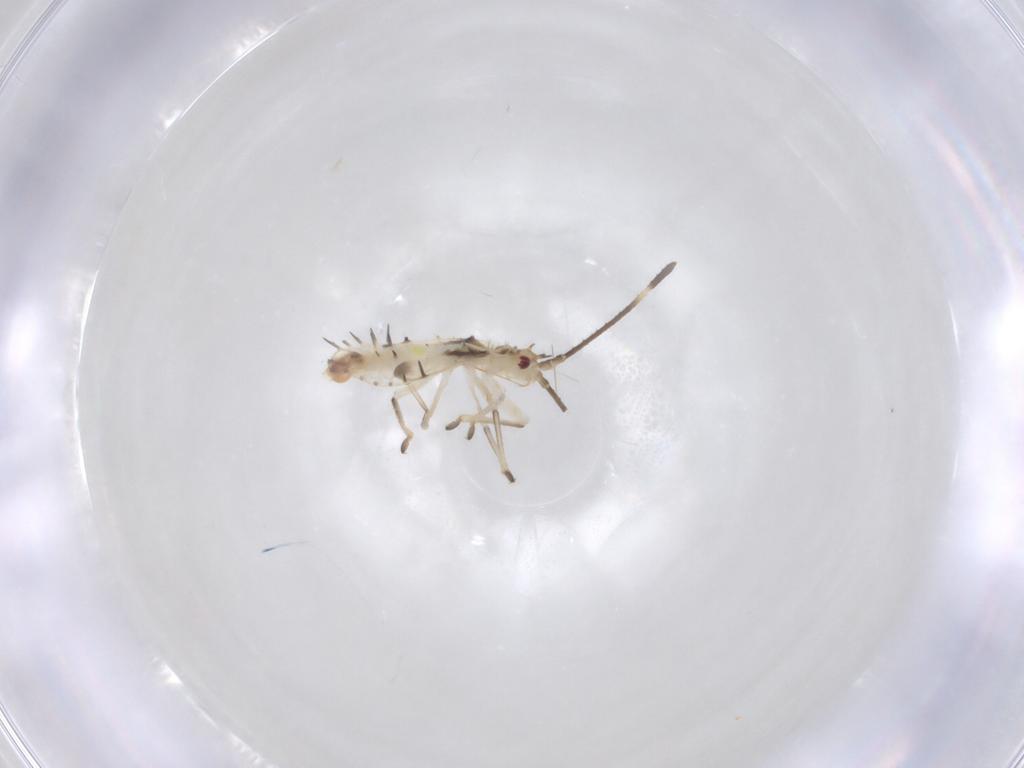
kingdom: Animalia
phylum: Arthropoda
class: Insecta
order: Hemiptera
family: Tingidae
